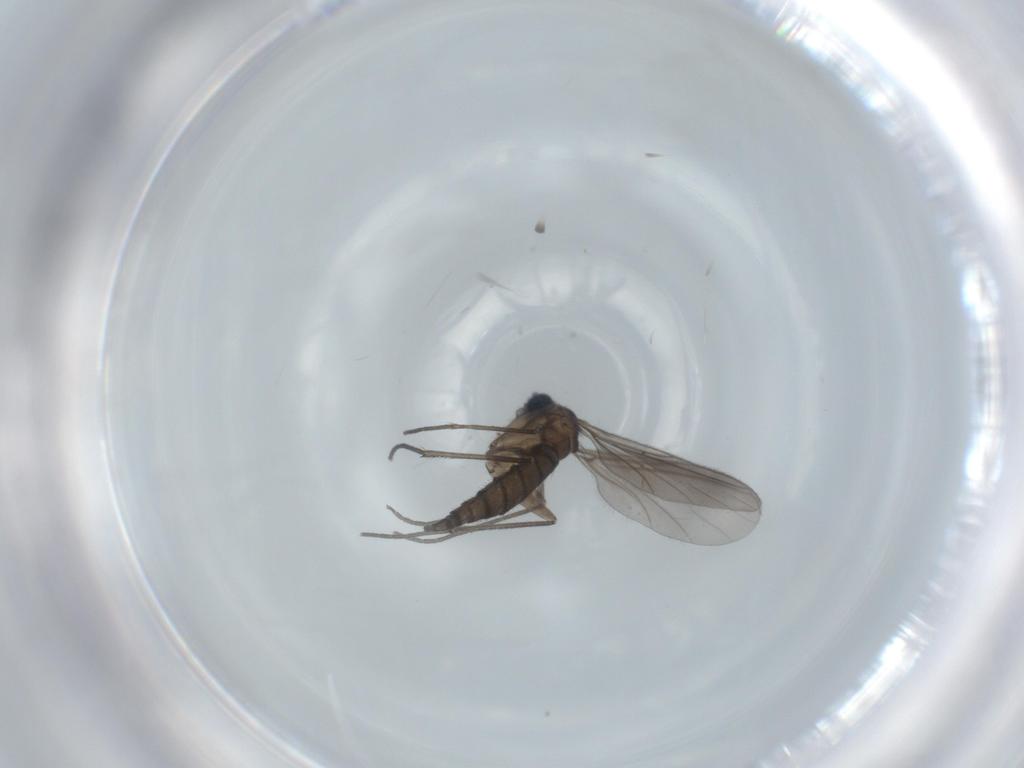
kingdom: Animalia
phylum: Arthropoda
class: Insecta
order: Diptera
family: Sciaridae
